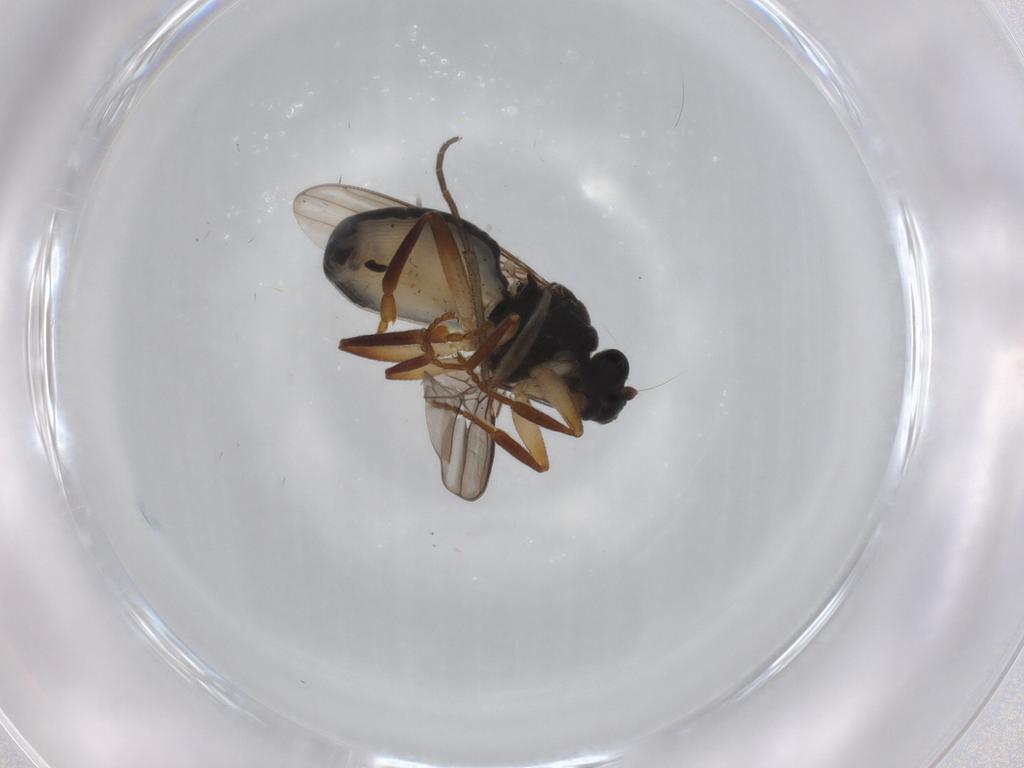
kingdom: Animalia
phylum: Arthropoda
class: Insecta
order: Diptera
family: Sphaeroceridae
